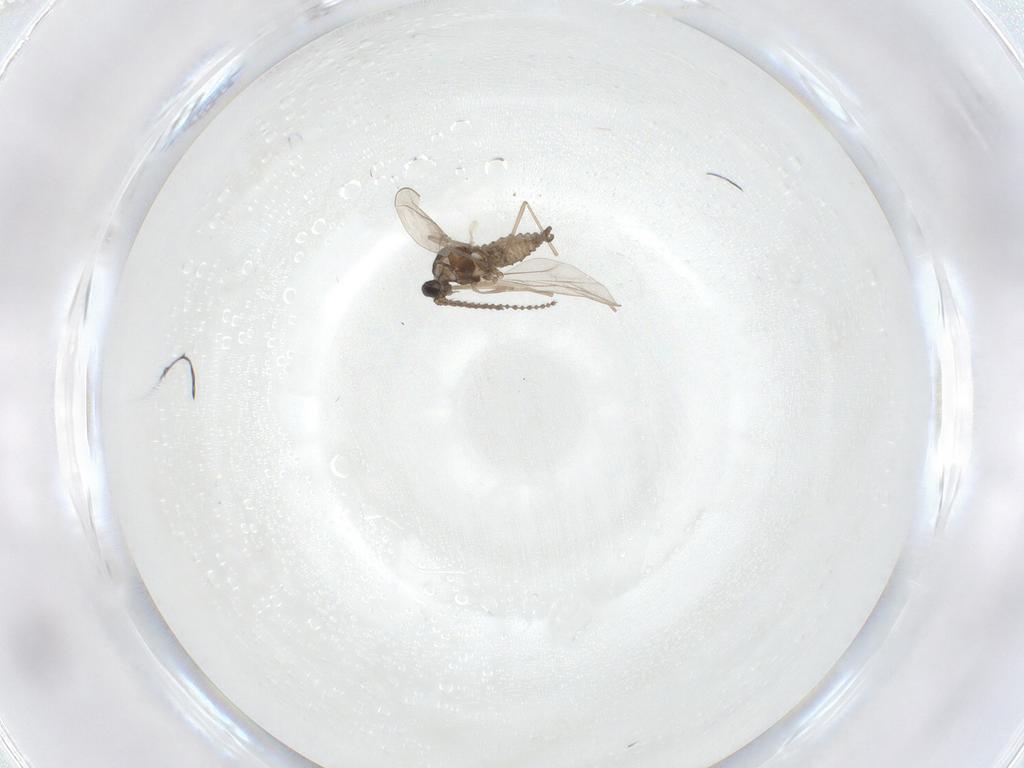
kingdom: Animalia
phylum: Arthropoda
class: Insecta
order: Diptera
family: Cecidomyiidae
